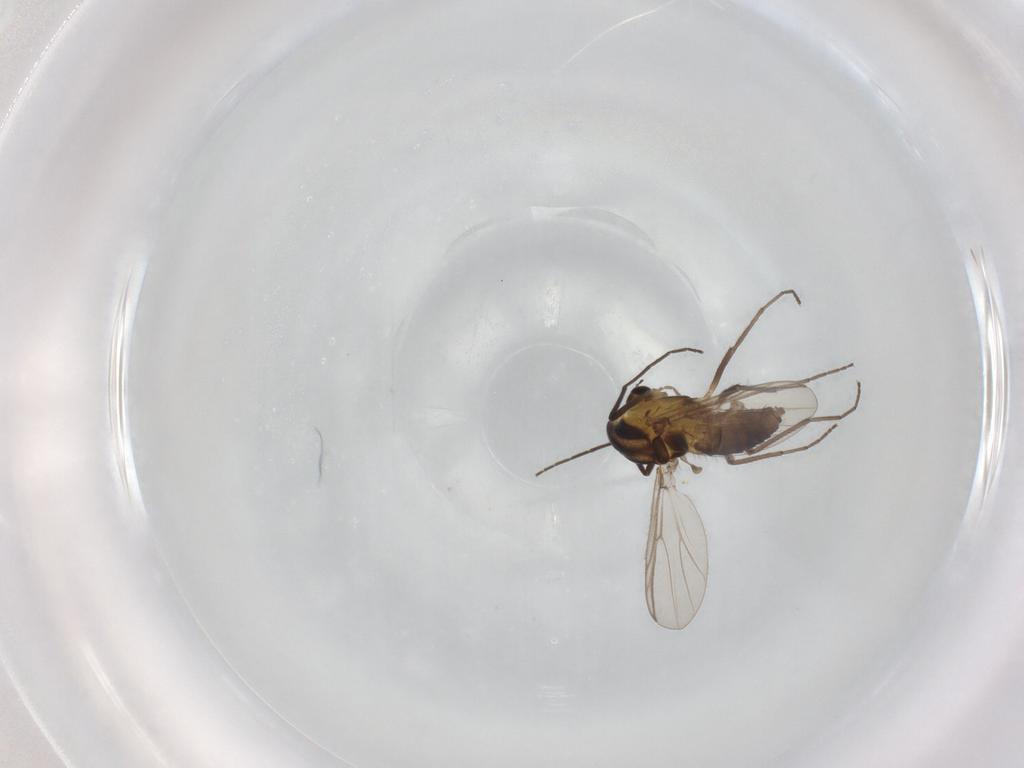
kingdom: Animalia
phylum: Arthropoda
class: Insecta
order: Diptera
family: Chironomidae
